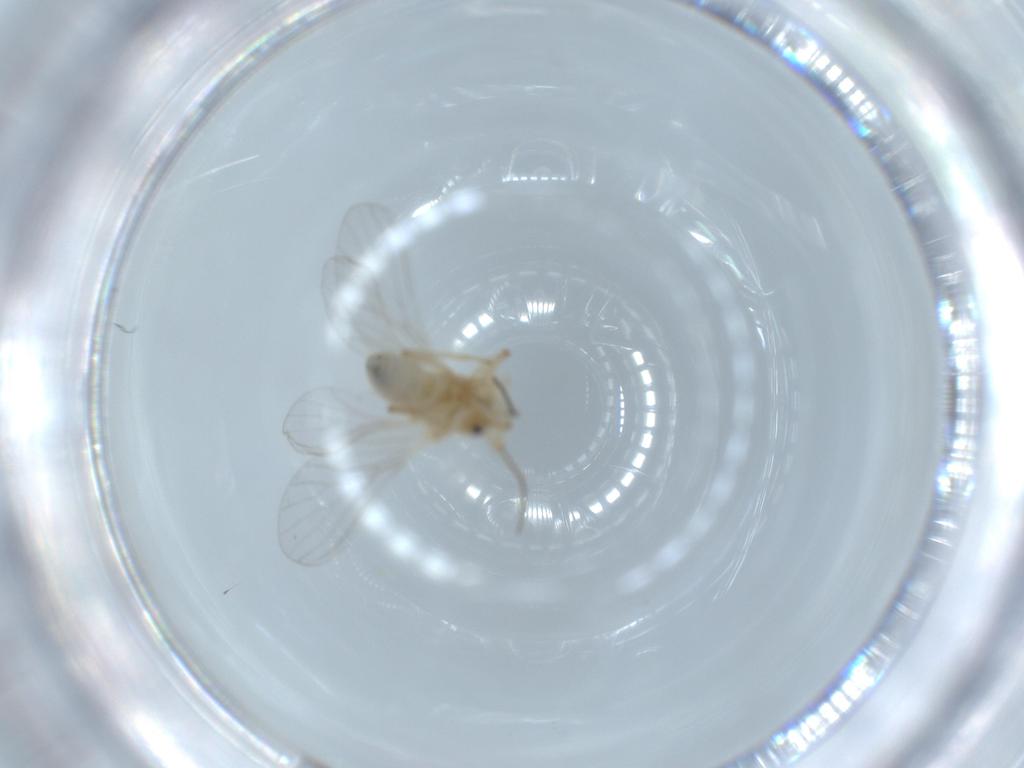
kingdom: Animalia
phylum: Arthropoda
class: Insecta
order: Neuroptera
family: Coniopterygidae
